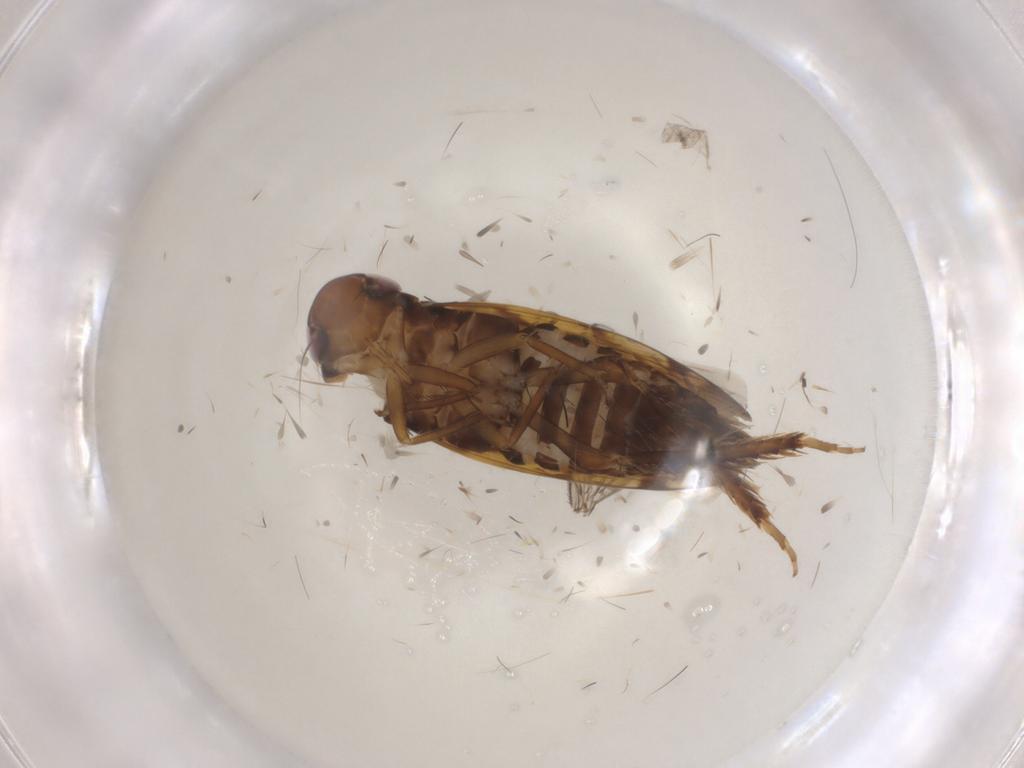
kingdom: Animalia
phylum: Arthropoda
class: Insecta
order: Hemiptera
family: Cicadellidae
